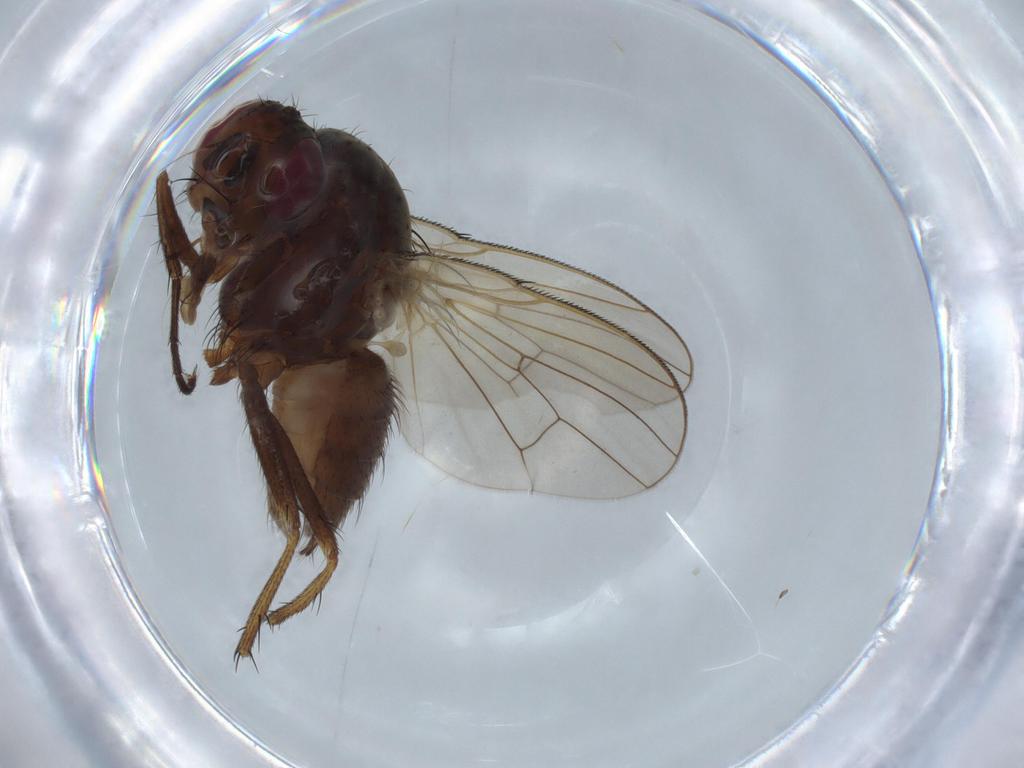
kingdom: Animalia
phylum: Arthropoda
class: Insecta
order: Diptera
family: Anthomyiidae
